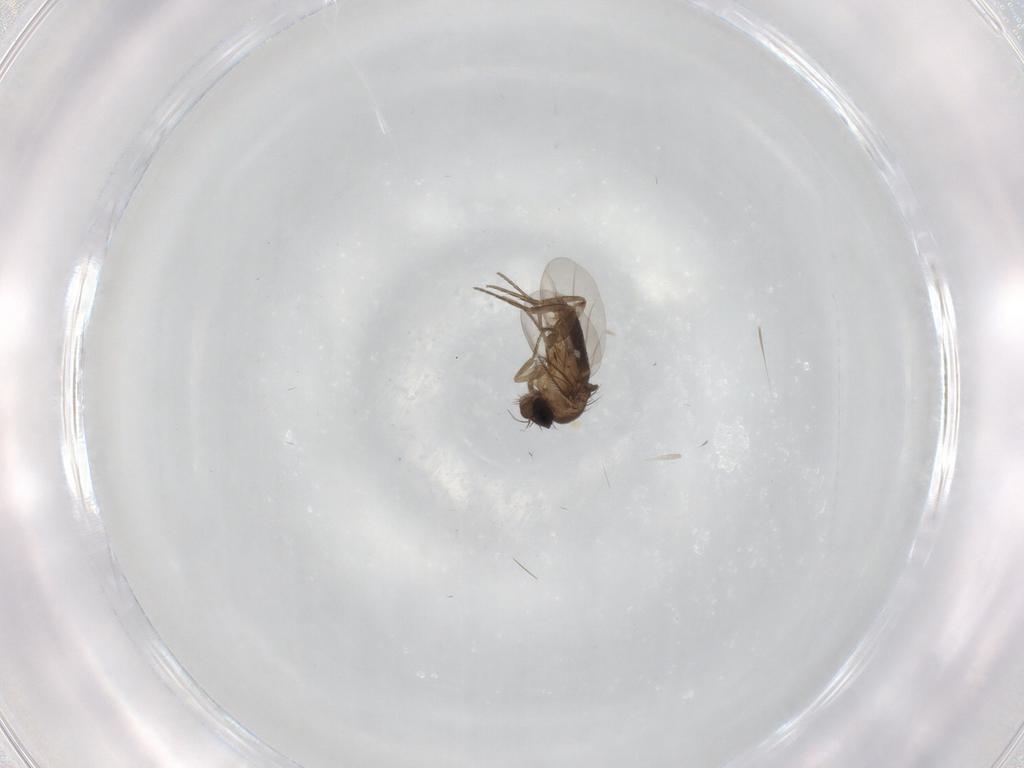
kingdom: Animalia
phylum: Arthropoda
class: Insecta
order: Diptera
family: Phoridae
